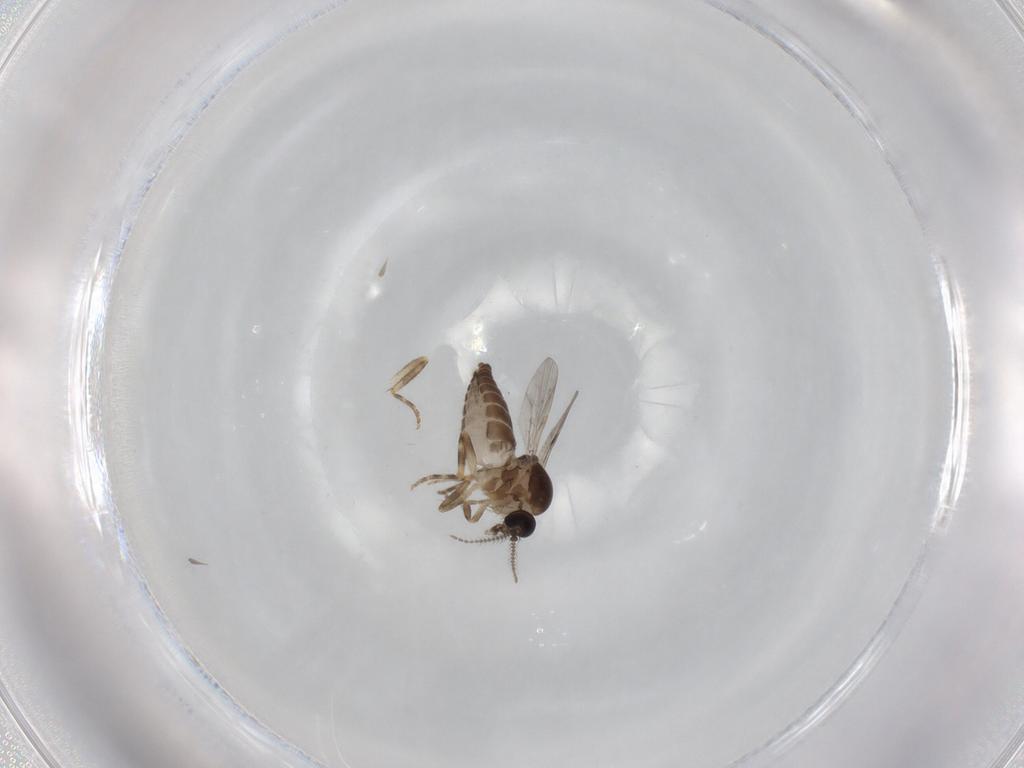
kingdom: Animalia
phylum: Arthropoda
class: Insecta
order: Diptera
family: Ceratopogonidae
